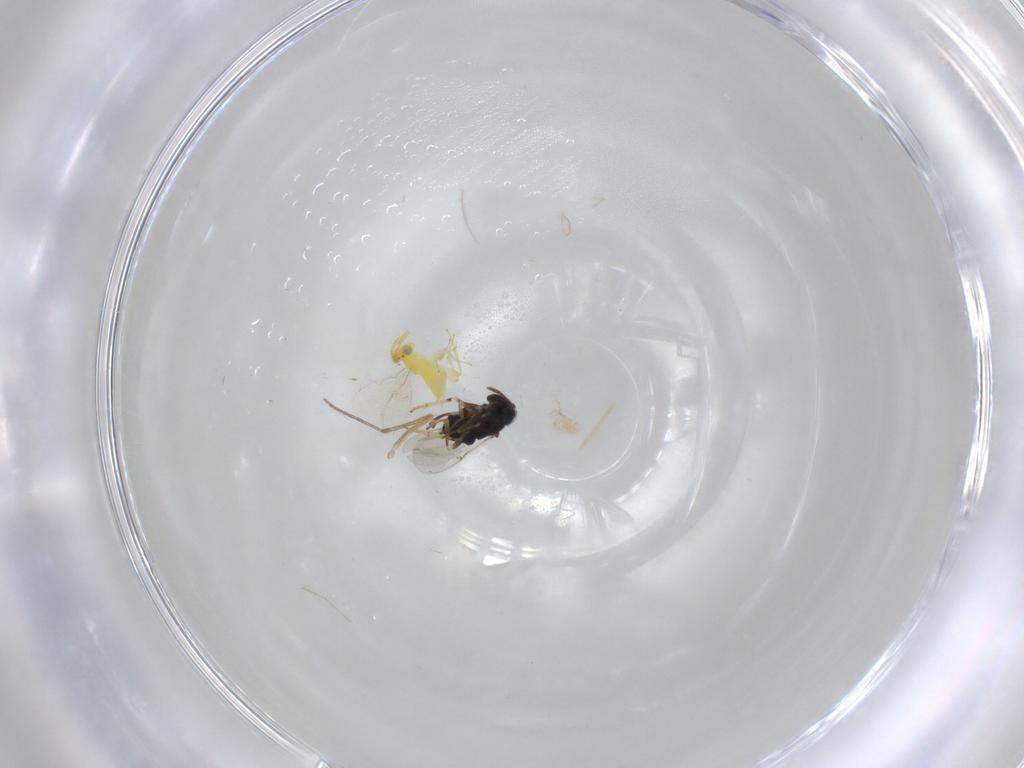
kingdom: Animalia
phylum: Arthropoda
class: Insecta
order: Hymenoptera
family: Encyrtidae
